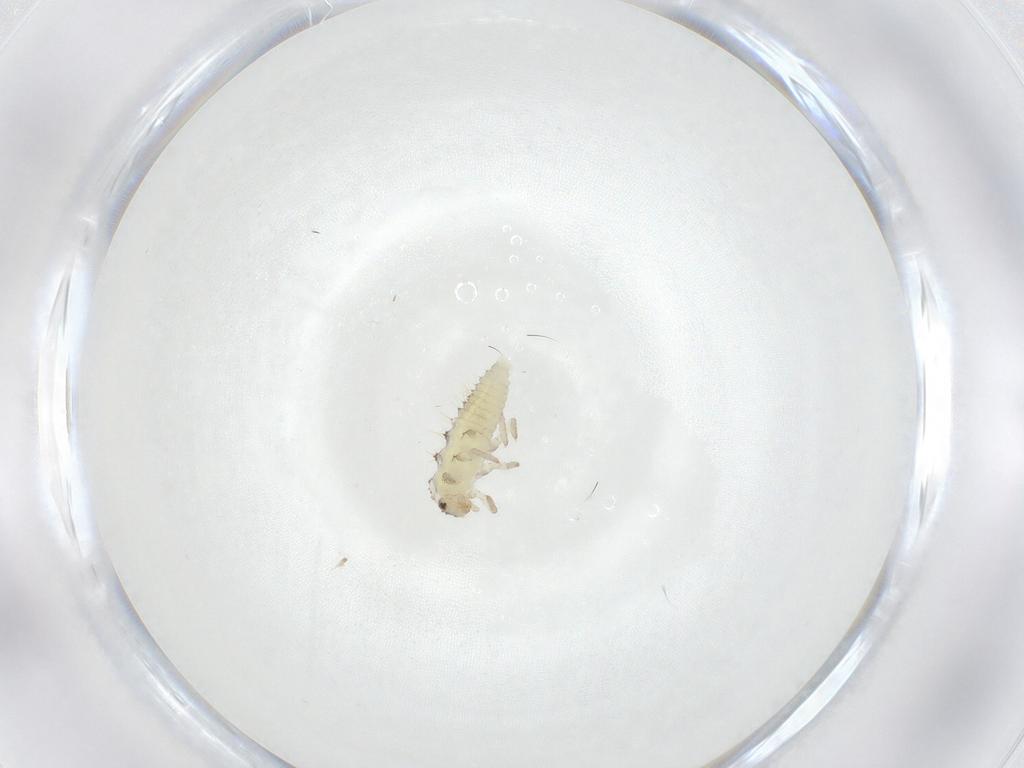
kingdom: Animalia
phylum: Arthropoda
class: Insecta
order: Coleoptera
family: Coccinellidae
